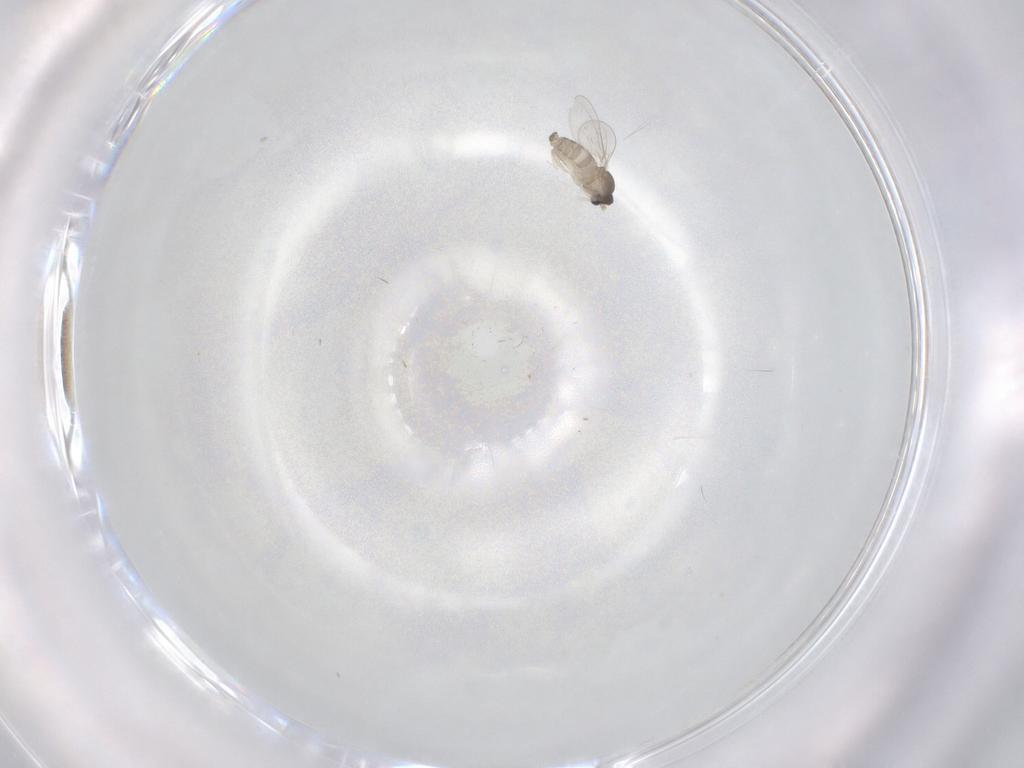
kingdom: Animalia
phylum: Arthropoda
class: Insecta
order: Diptera
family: Cecidomyiidae
